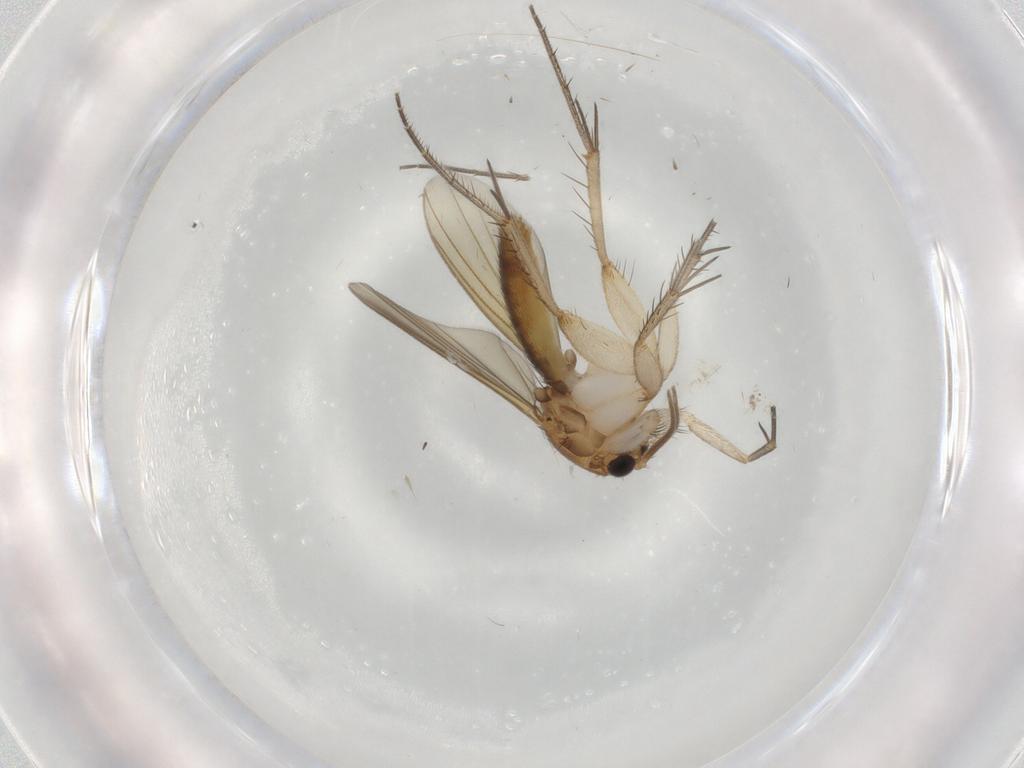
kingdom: Animalia
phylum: Arthropoda
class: Insecta
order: Diptera
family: Mycetophilidae
